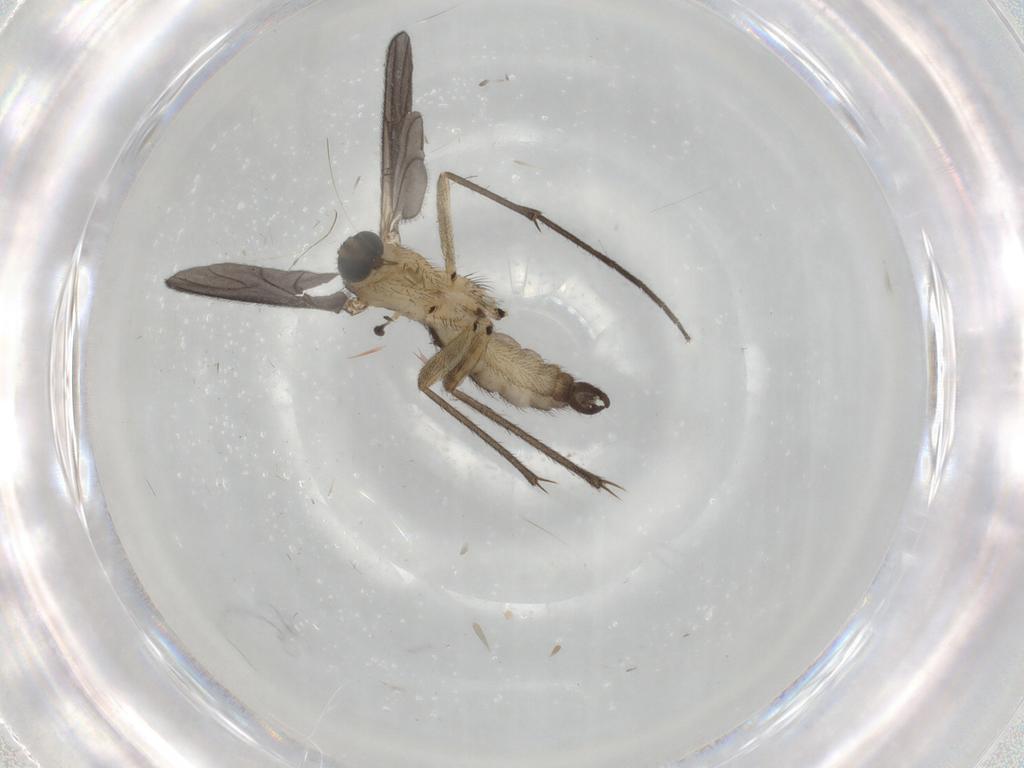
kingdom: Animalia
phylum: Arthropoda
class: Insecta
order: Diptera
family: Sciaridae
